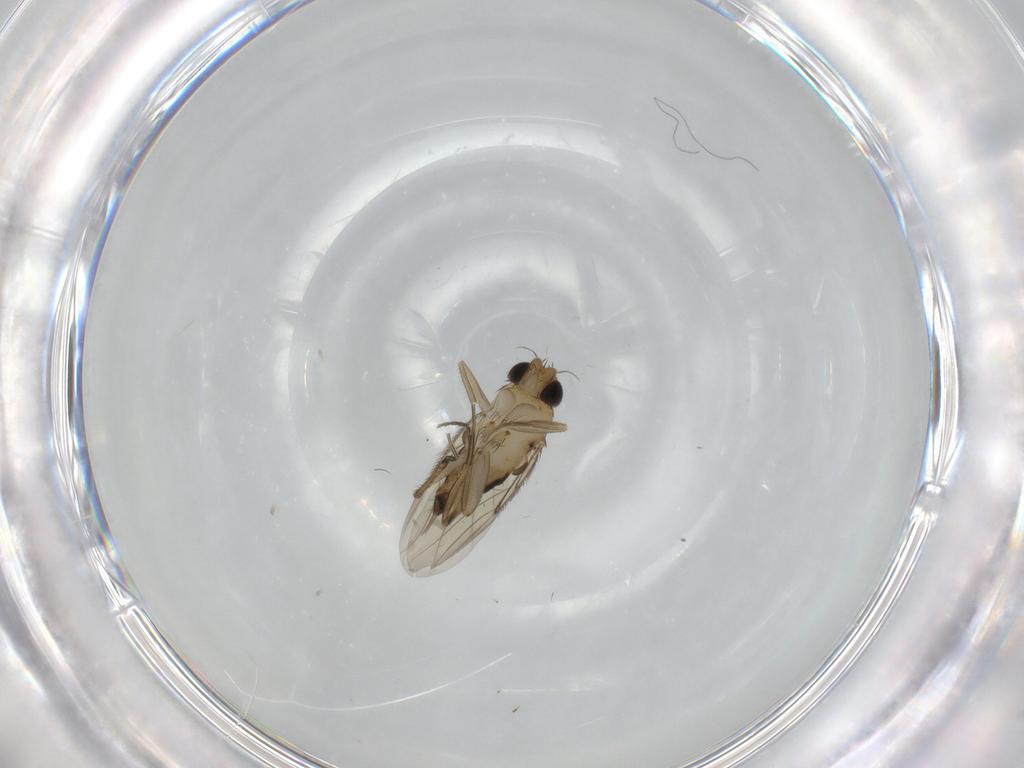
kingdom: Animalia
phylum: Arthropoda
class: Insecta
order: Diptera
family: Phoridae
